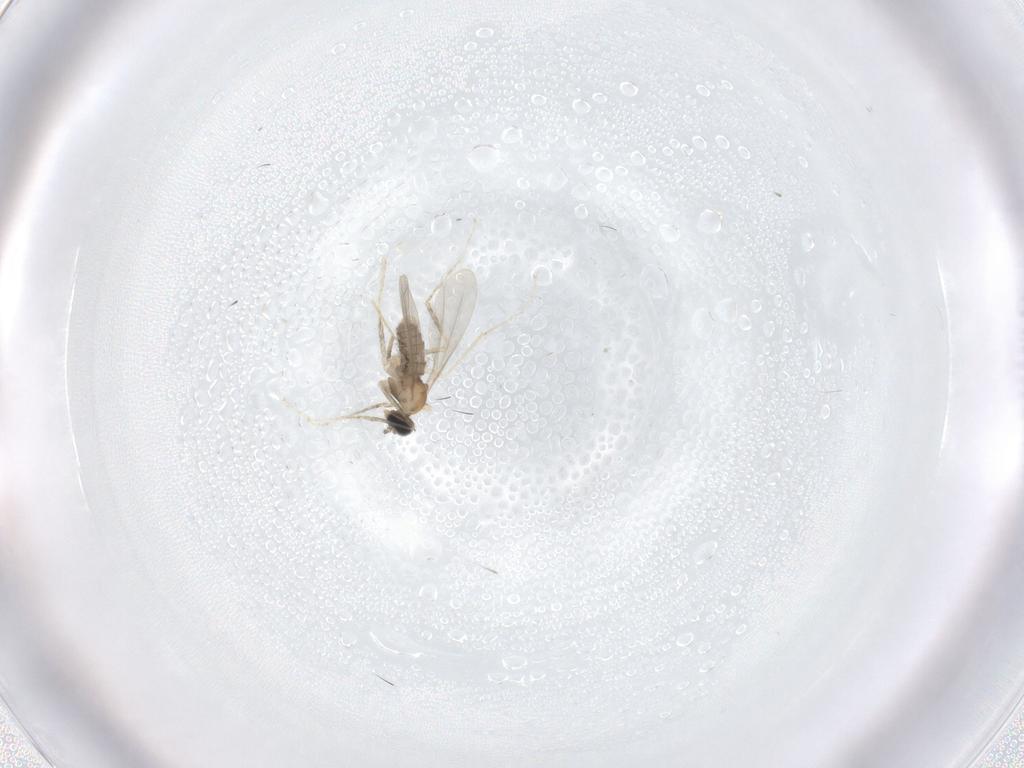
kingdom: Animalia
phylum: Arthropoda
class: Insecta
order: Diptera
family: Cecidomyiidae
